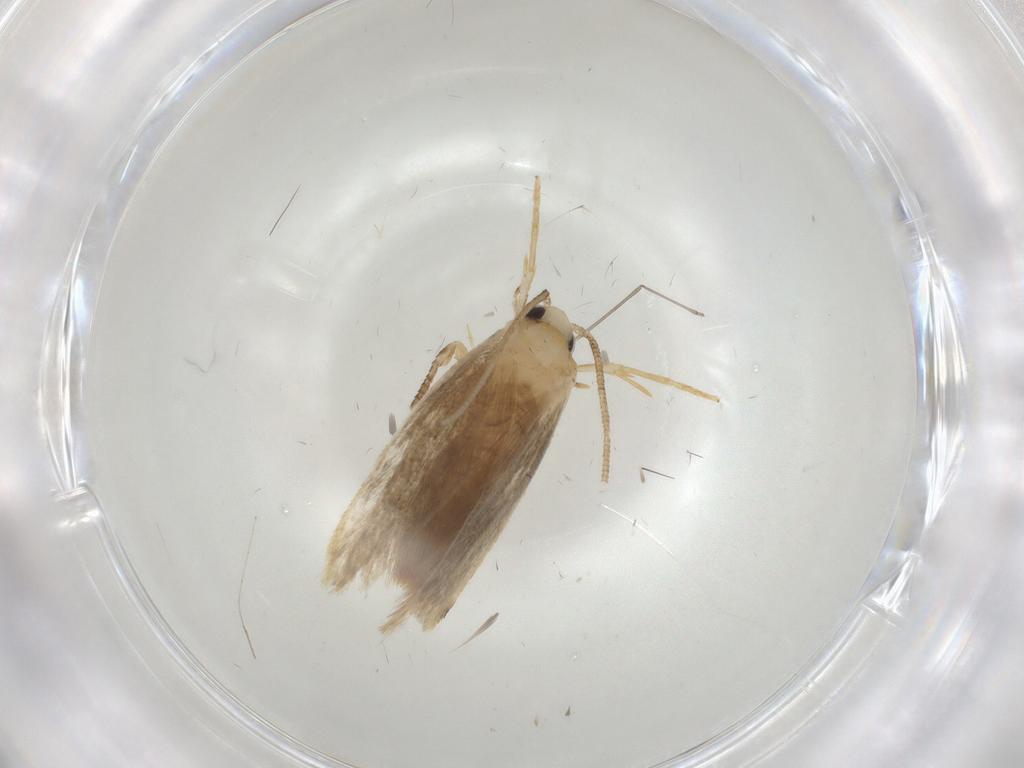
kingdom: Animalia
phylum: Arthropoda
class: Insecta
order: Lepidoptera
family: Tineidae
